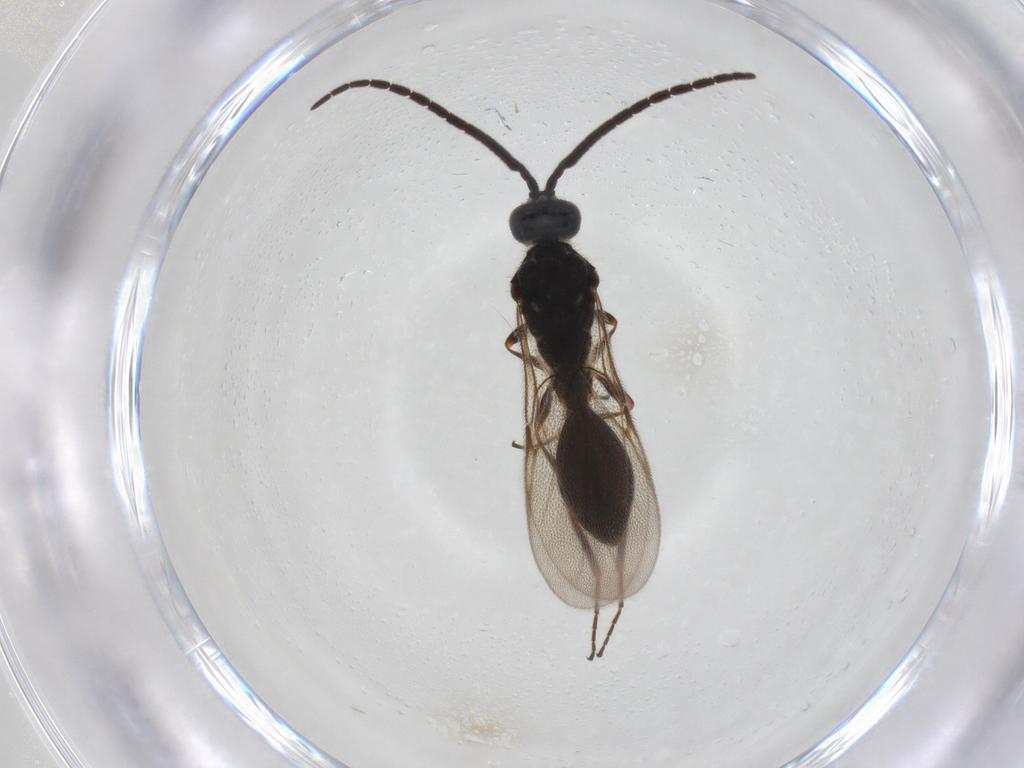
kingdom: Animalia
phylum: Arthropoda
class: Insecta
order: Hymenoptera
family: Diapriidae
